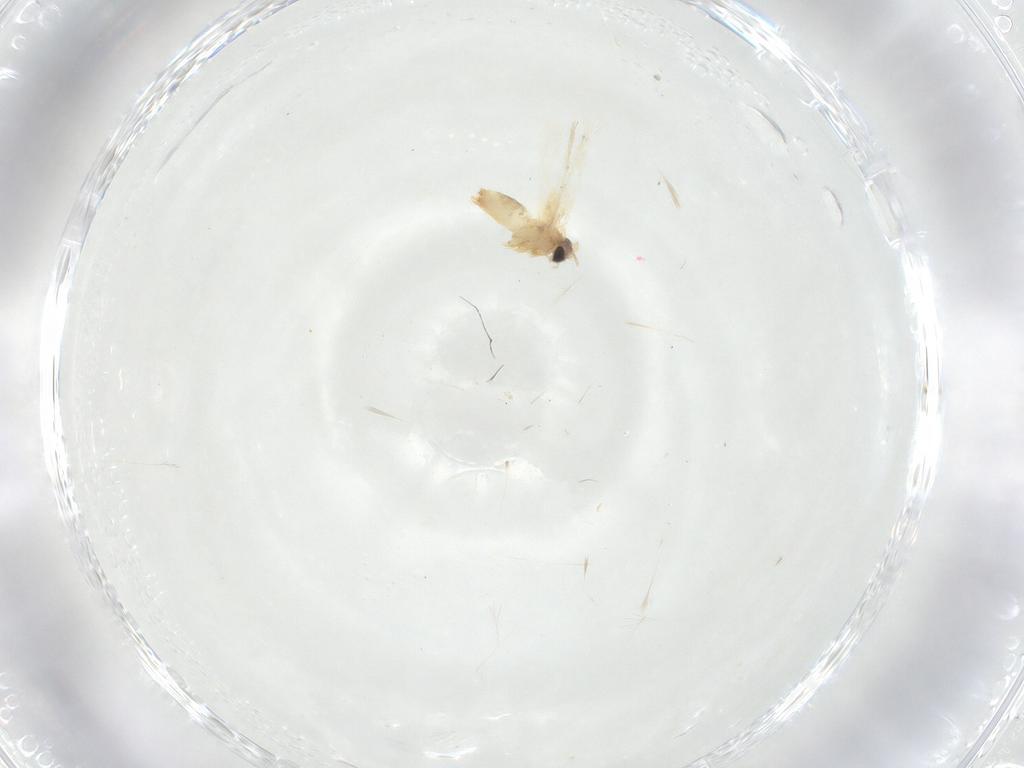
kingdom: Animalia
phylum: Arthropoda
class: Insecta
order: Lepidoptera
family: Crambidae
